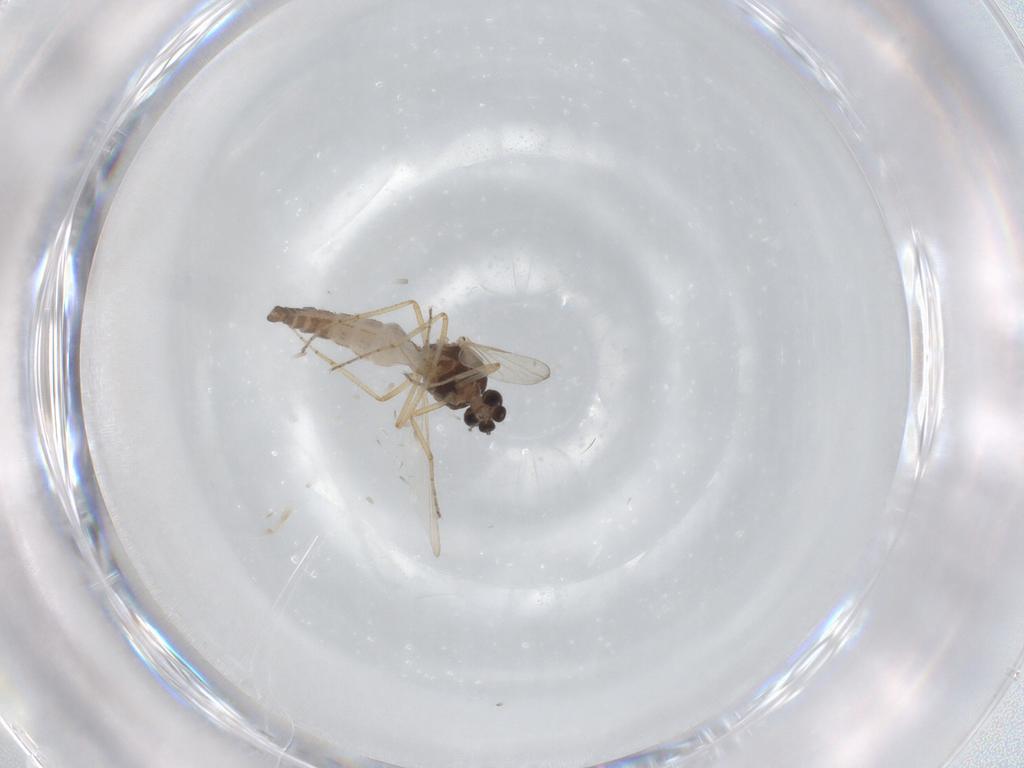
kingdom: Animalia
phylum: Arthropoda
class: Insecta
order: Diptera
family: Ceratopogonidae
